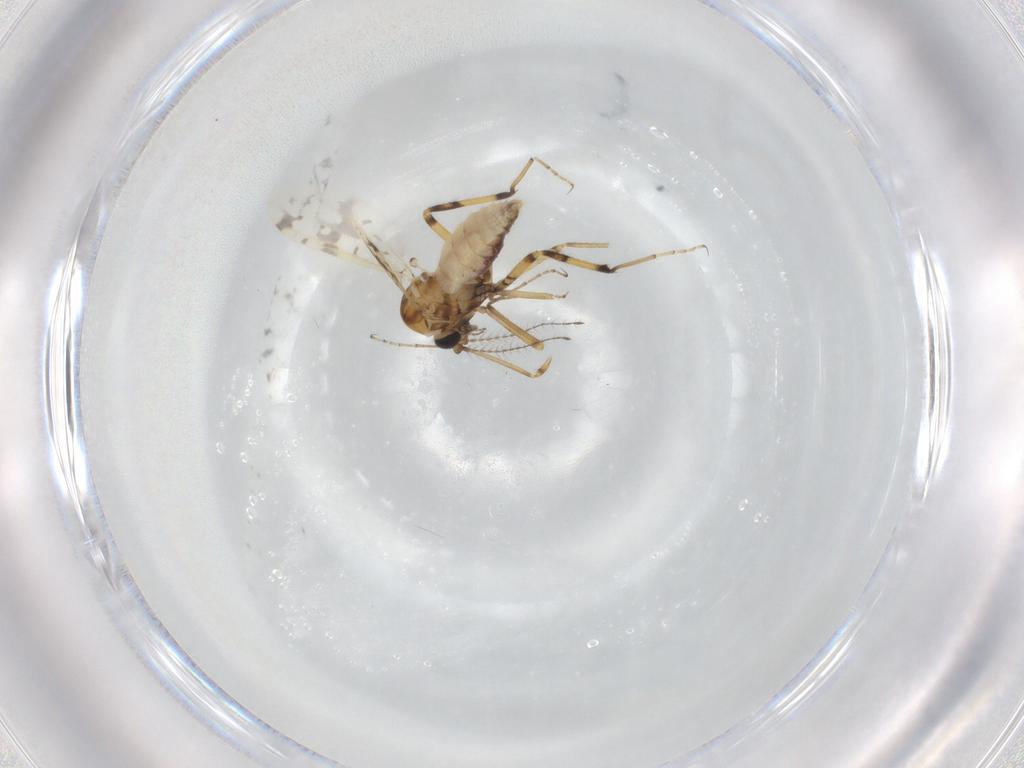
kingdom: Animalia
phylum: Arthropoda
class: Insecta
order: Diptera
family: Ceratopogonidae
